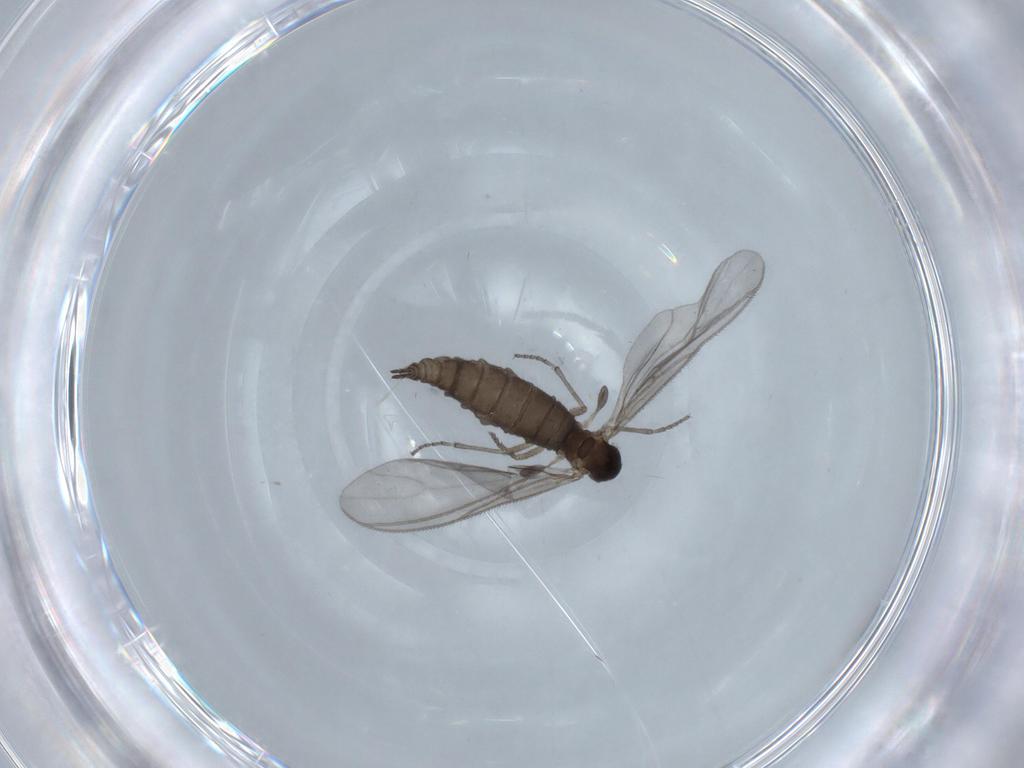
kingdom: Animalia
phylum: Arthropoda
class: Insecta
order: Diptera
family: Sciaridae
